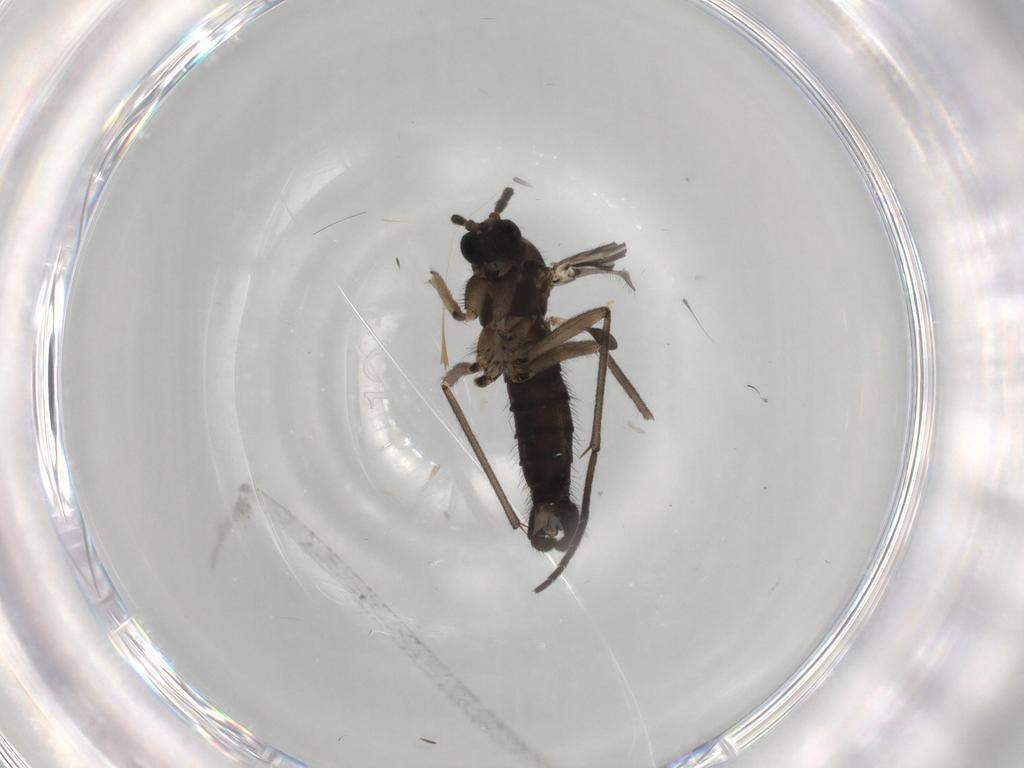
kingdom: Animalia
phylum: Arthropoda
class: Insecta
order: Diptera
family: Sciaridae
